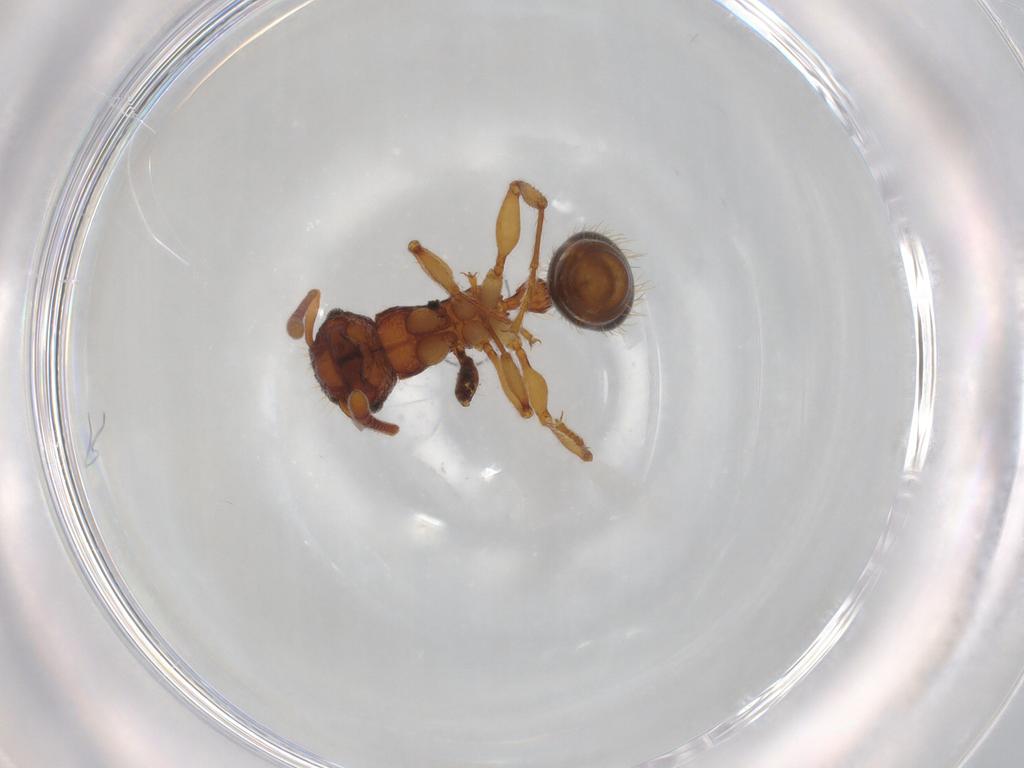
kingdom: Animalia
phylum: Arthropoda
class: Insecta
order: Hymenoptera
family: Formicidae
